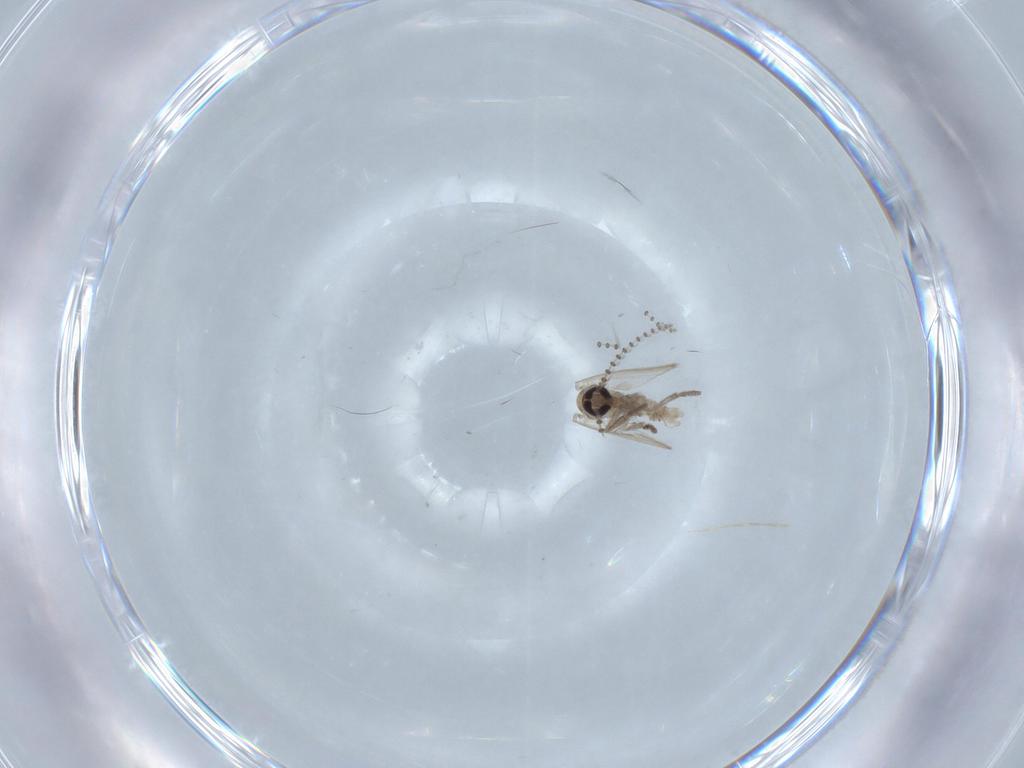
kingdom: Animalia
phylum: Arthropoda
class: Insecta
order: Diptera
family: Psychodidae
